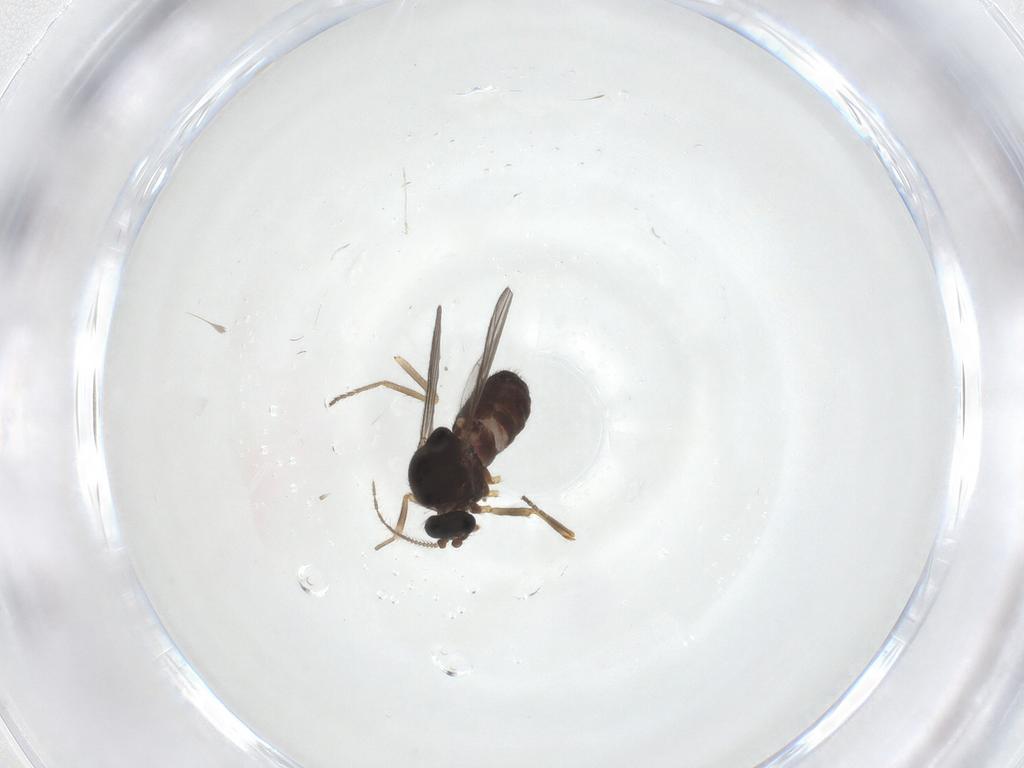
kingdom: Animalia
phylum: Arthropoda
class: Insecta
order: Diptera
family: Ceratopogonidae
